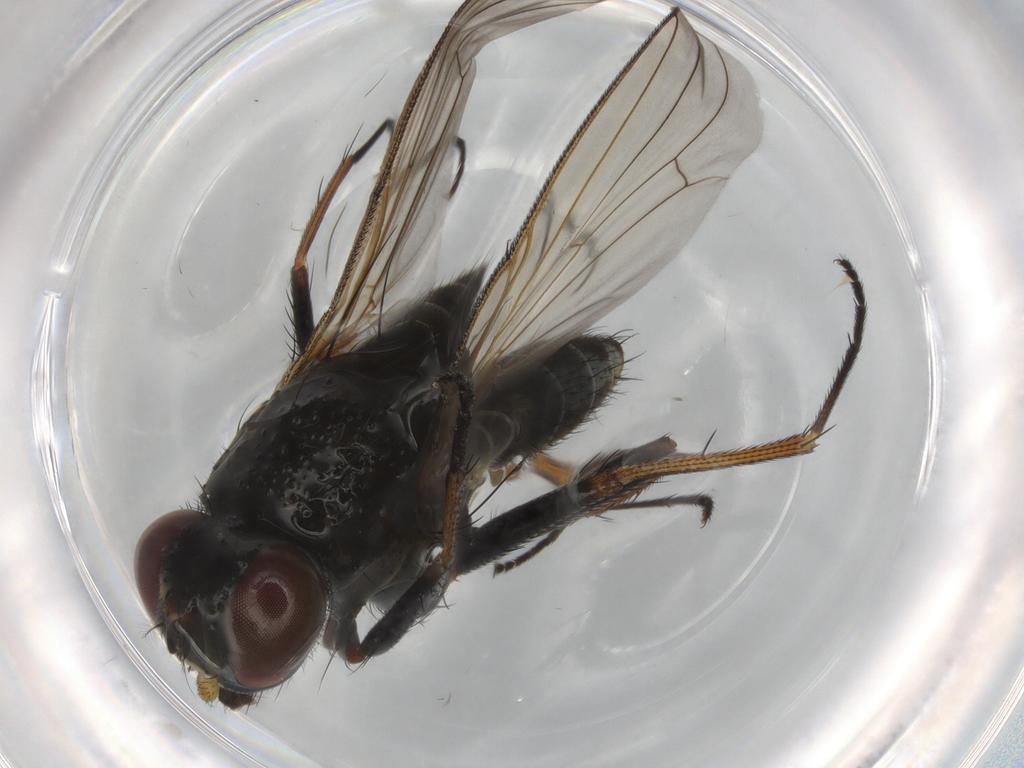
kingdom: Animalia
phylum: Arthropoda
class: Insecta
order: Diptera
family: Muscidae
